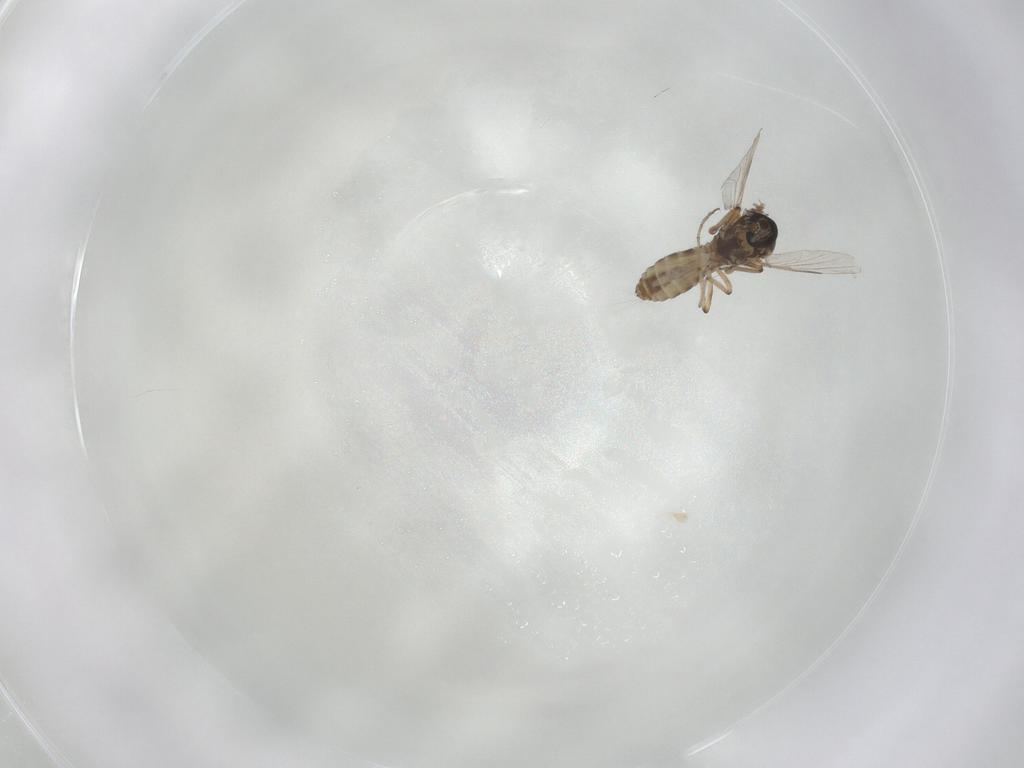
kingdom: Animalia
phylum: Arthropoda
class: Insecta
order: Diptera
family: Muscidae
